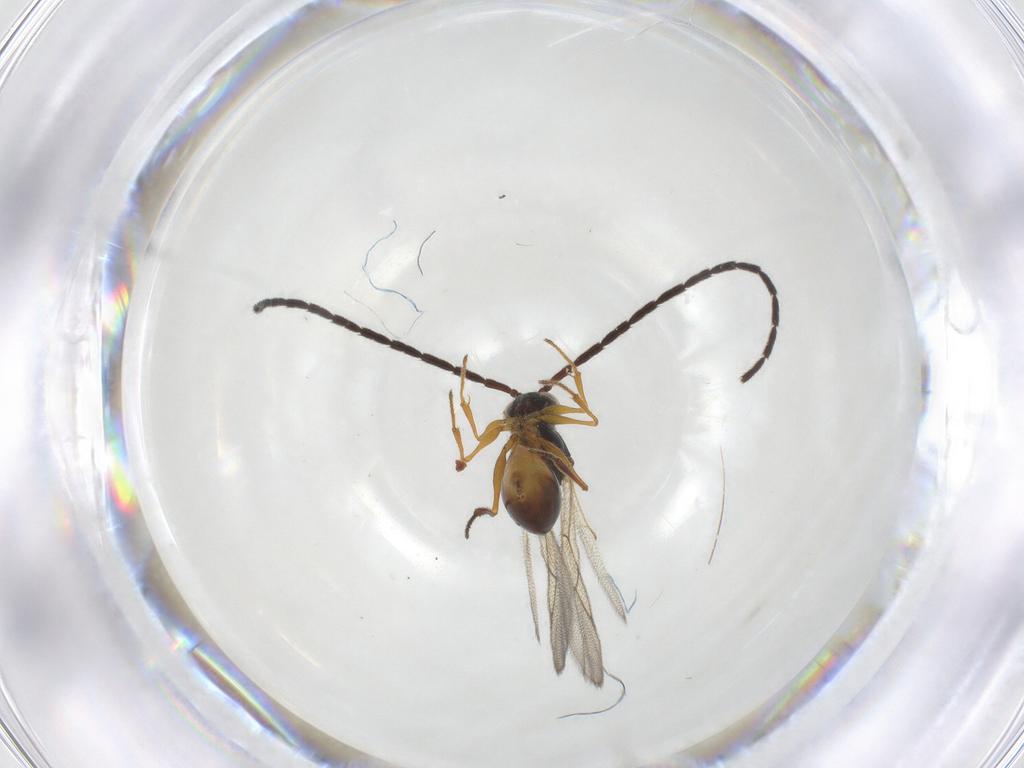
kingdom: Animalia
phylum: Arthropoda
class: Insecta
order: Hymenoptera
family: Figitidae
